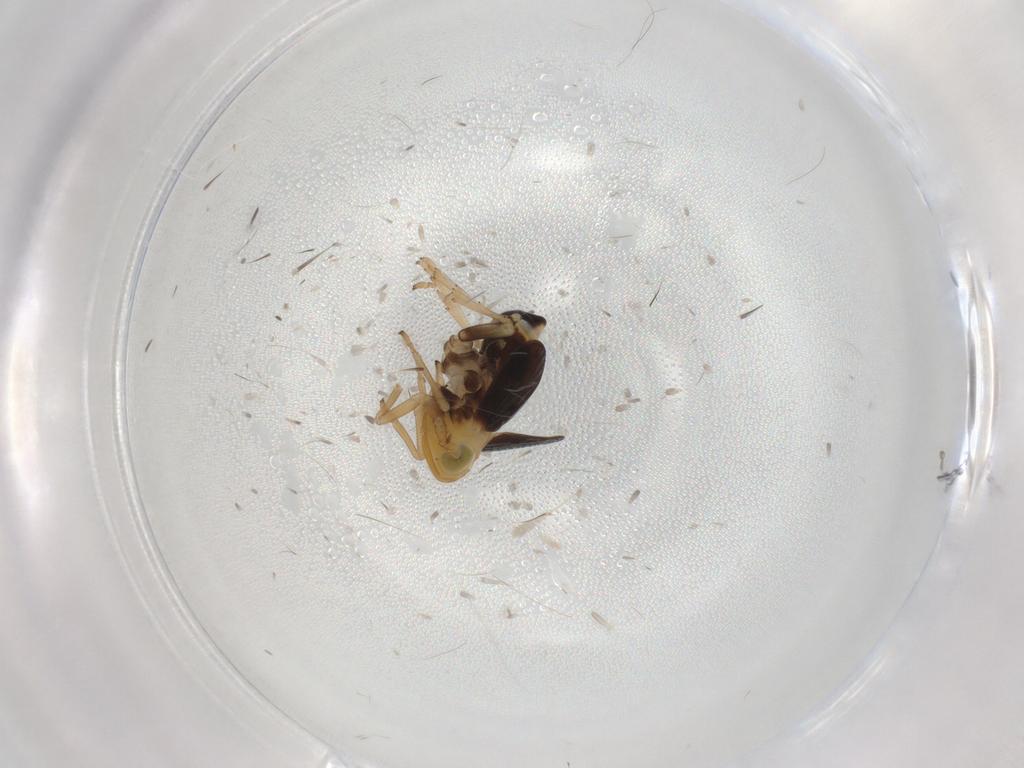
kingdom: Animalia
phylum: Arthropoda
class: Insecta
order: Hemiptera
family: Delphacidae
